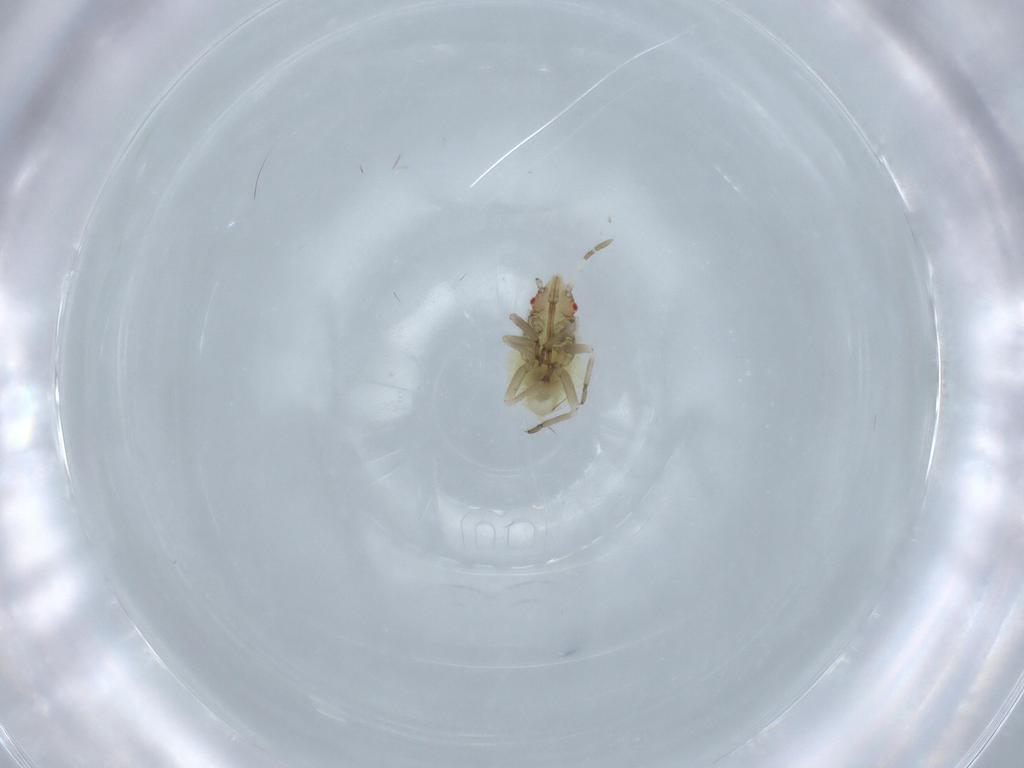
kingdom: Animalia
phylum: Arthropoda
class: Insecta
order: Hemiptera
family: Miridae
